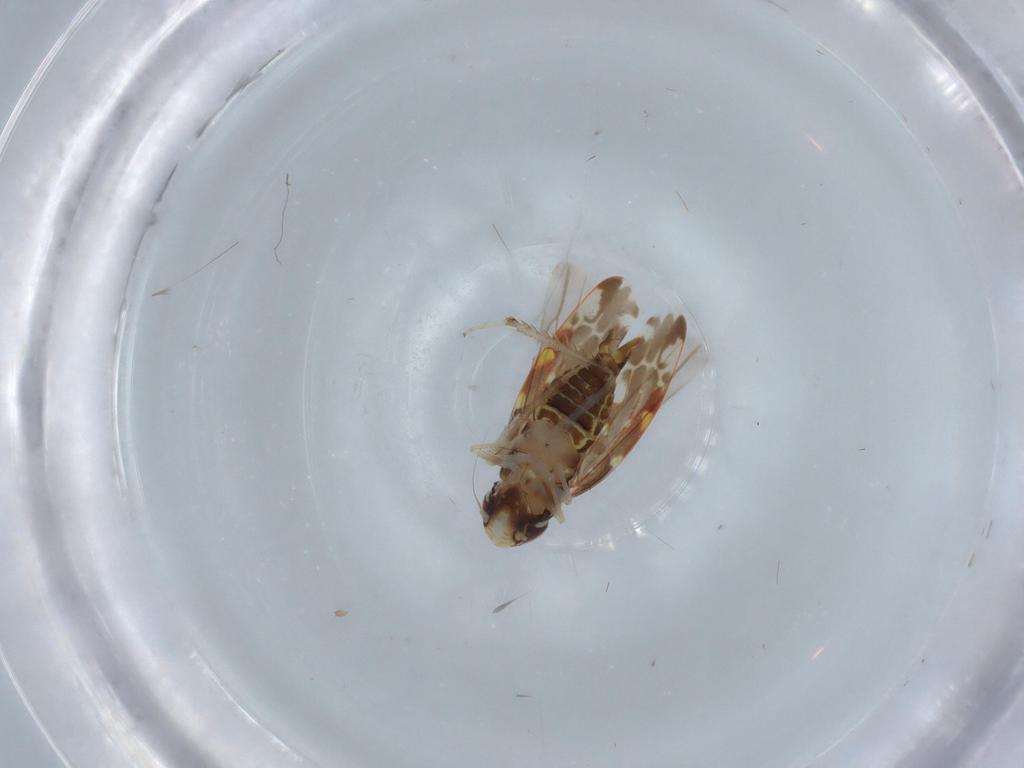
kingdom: Animalia
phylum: Arthropoda
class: Insecta
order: Hemiptera
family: Cicadellidae
